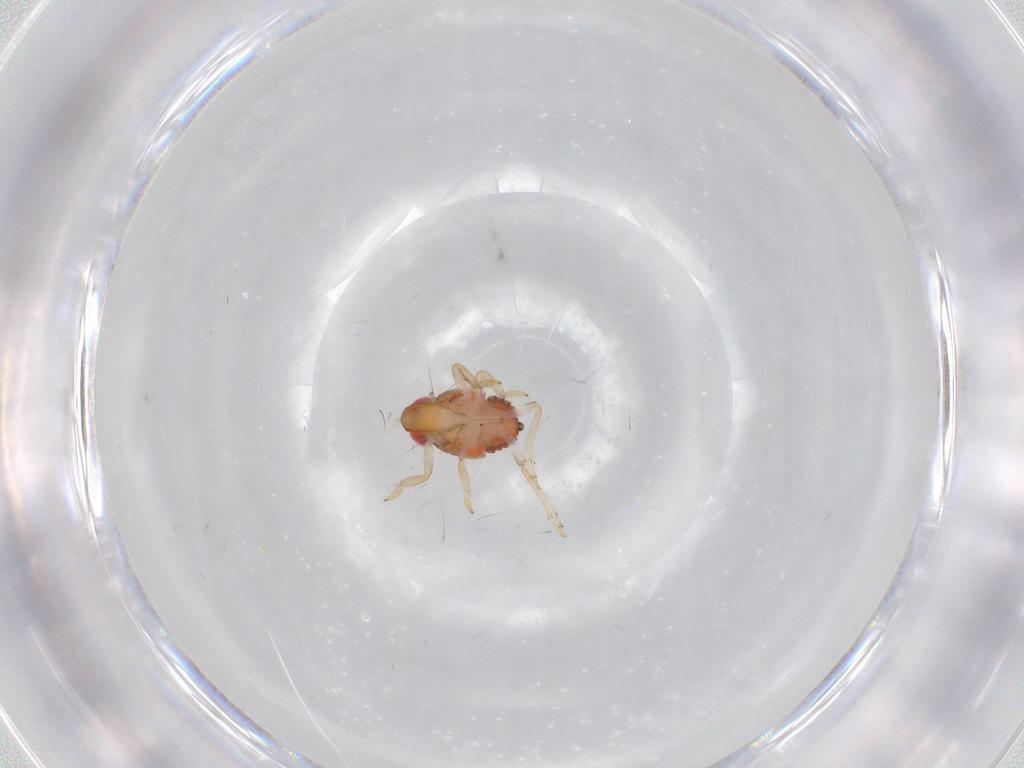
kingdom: Animalia
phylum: Arthropoda
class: Insecta
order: Hemiptera
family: Issidae
